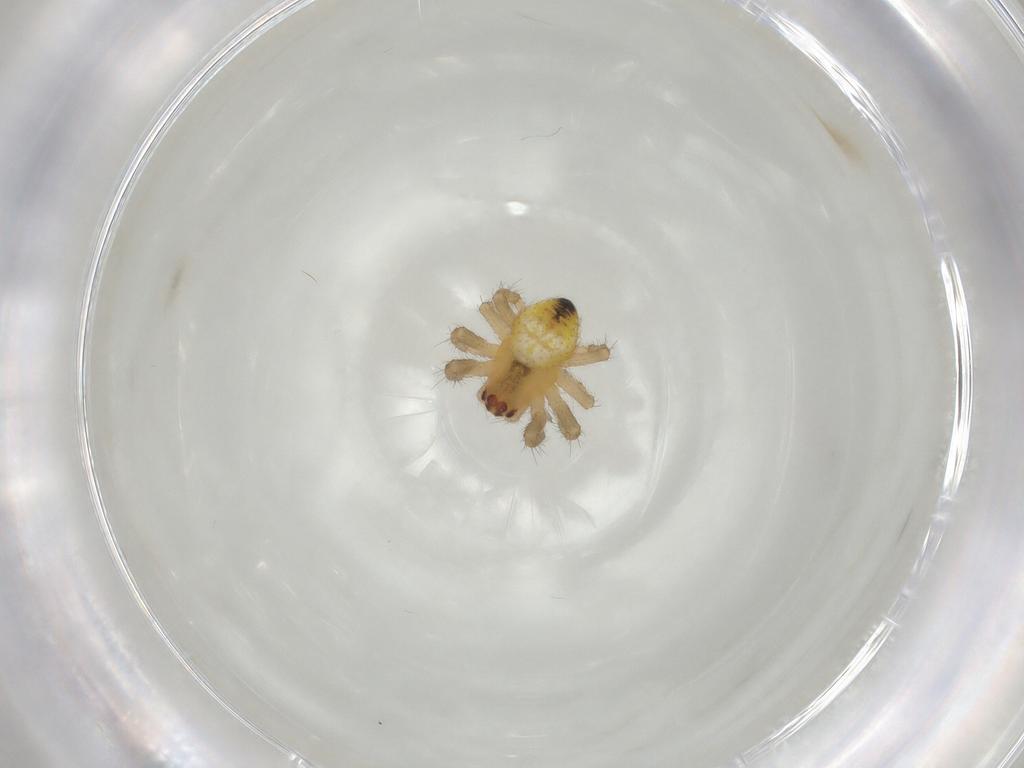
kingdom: Animalia
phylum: Arthropoda
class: Arachnida
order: Araneae
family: Araneidae
